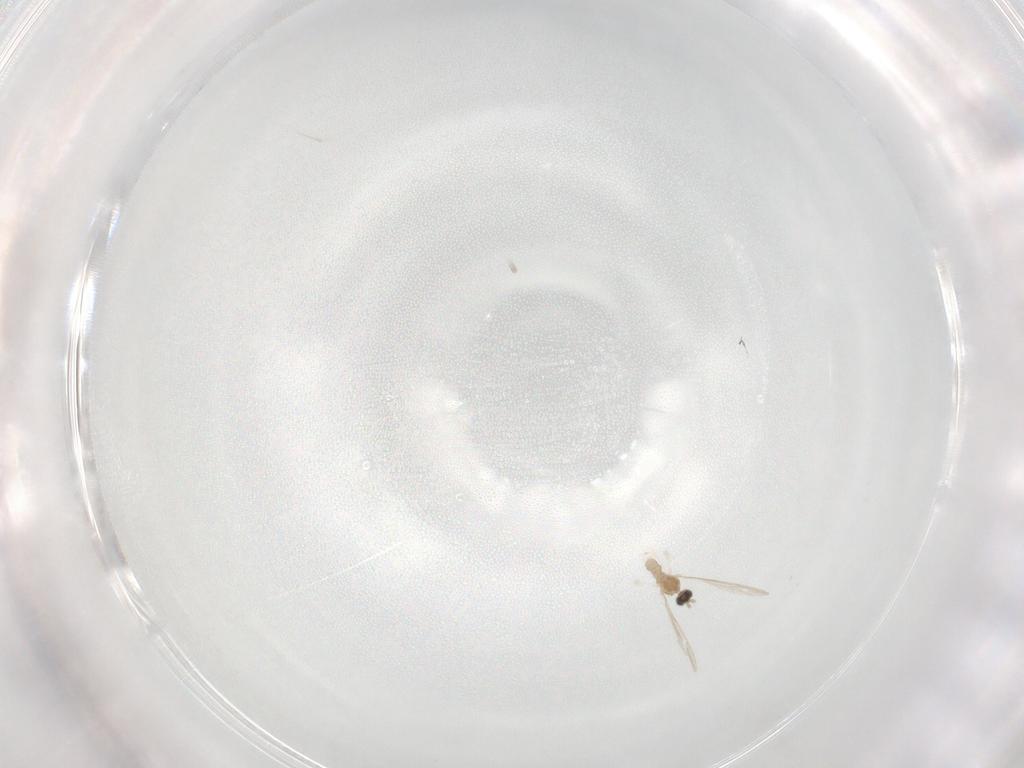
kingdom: Animalia
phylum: Arthropoda
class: Insecta
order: Diptera
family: Cecidomyiidae
